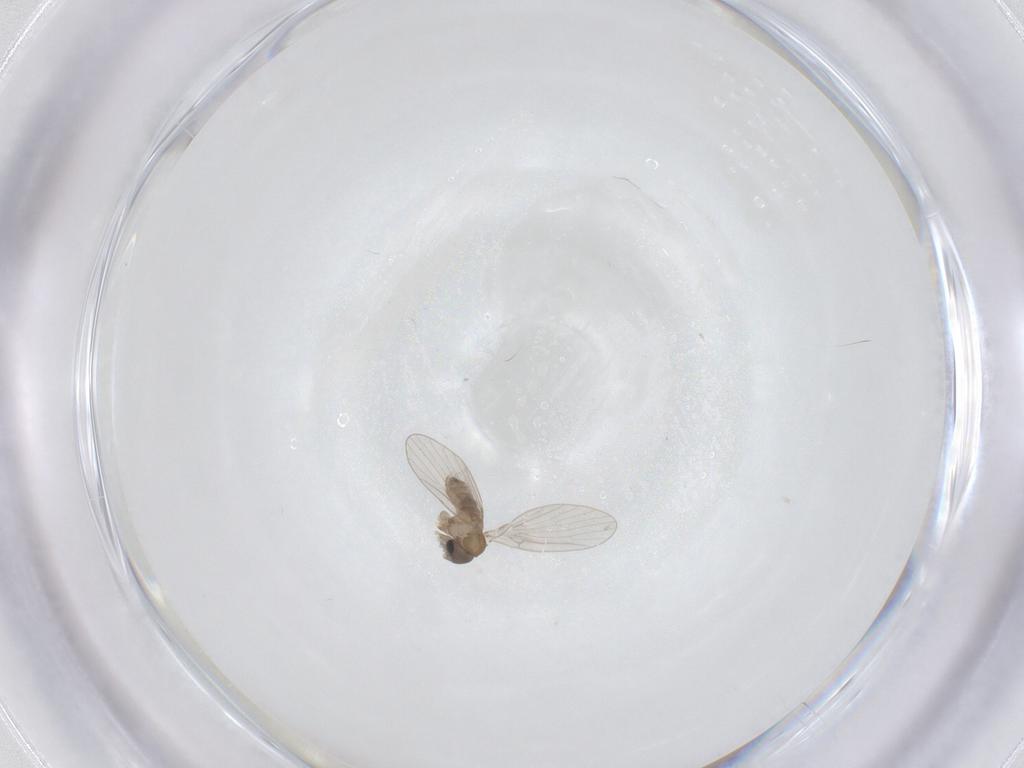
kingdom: Animalia
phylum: Arthropoda
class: Insecta
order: Diptera
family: Psychodidae
